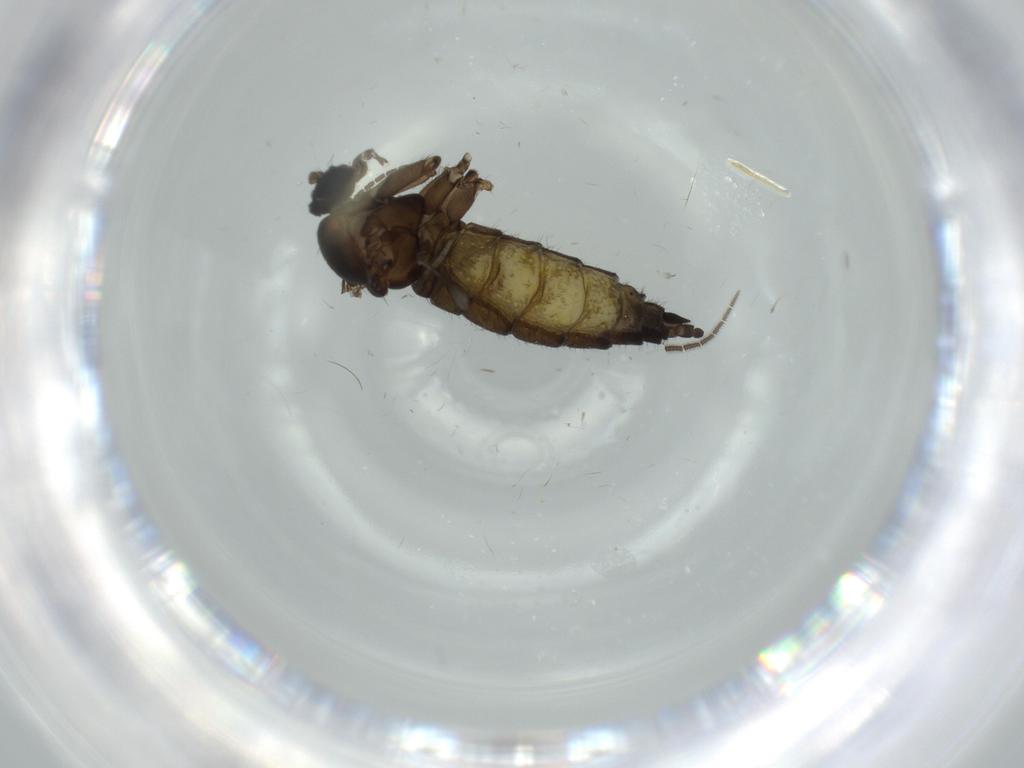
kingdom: Animalia
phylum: Arthropoda
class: Insecta
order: Diptera
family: Sciaridae
